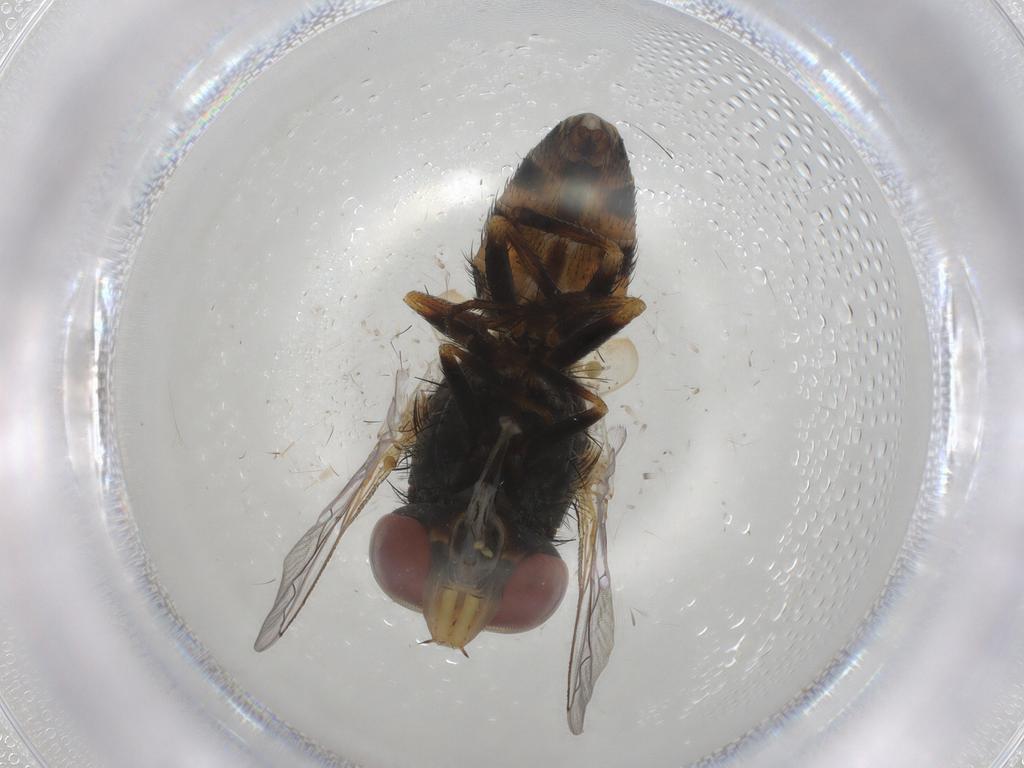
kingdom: Animalia
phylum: Arthropoda
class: Insecta
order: Diptera
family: Sarcophagidae
